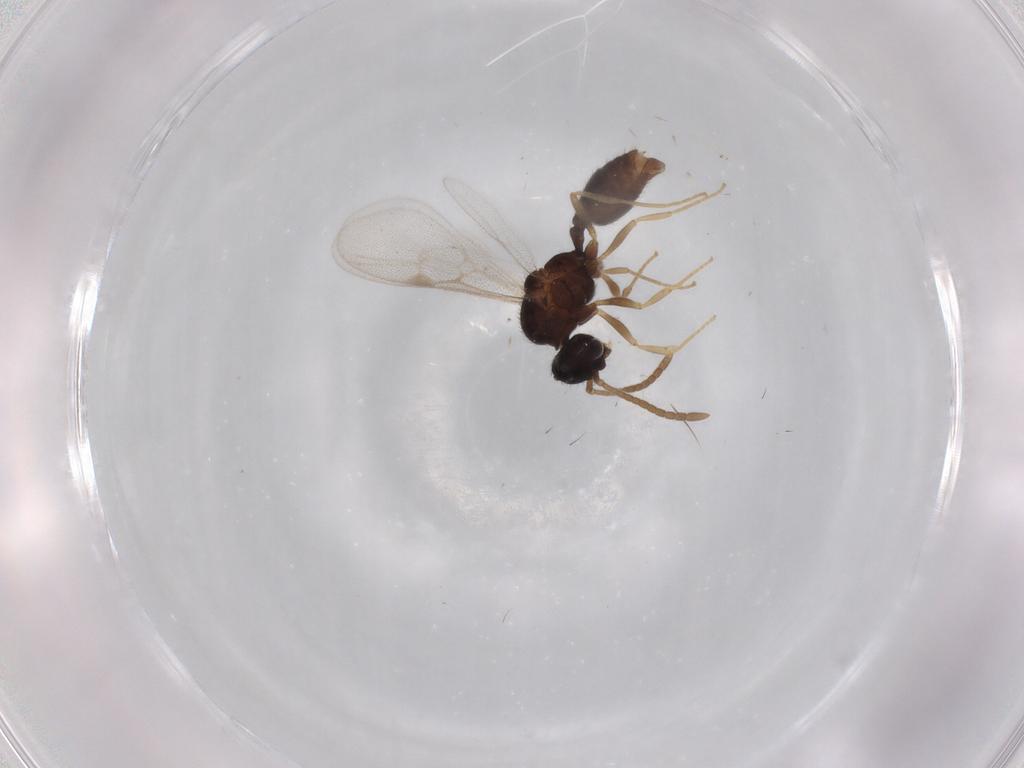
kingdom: Animalia
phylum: Arthropoda
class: Insecta
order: Hymenoptera
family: Formicidae
